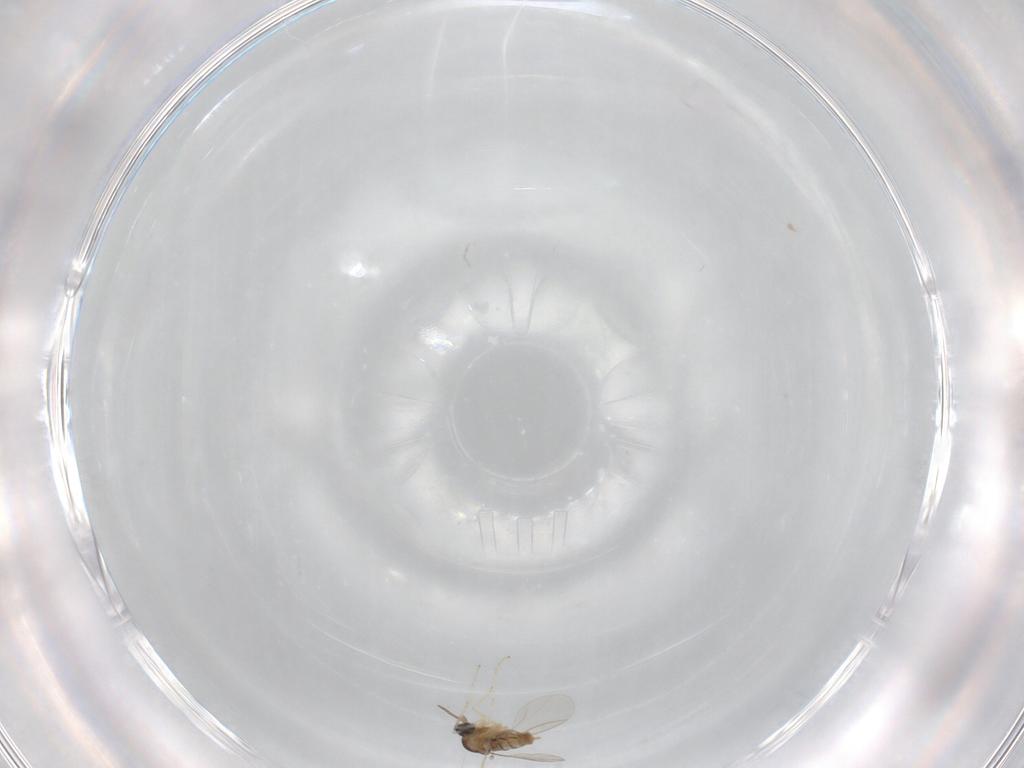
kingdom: Animalia
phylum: Arthropoda
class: Insecta
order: Diptera
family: Cecidomyiidae
